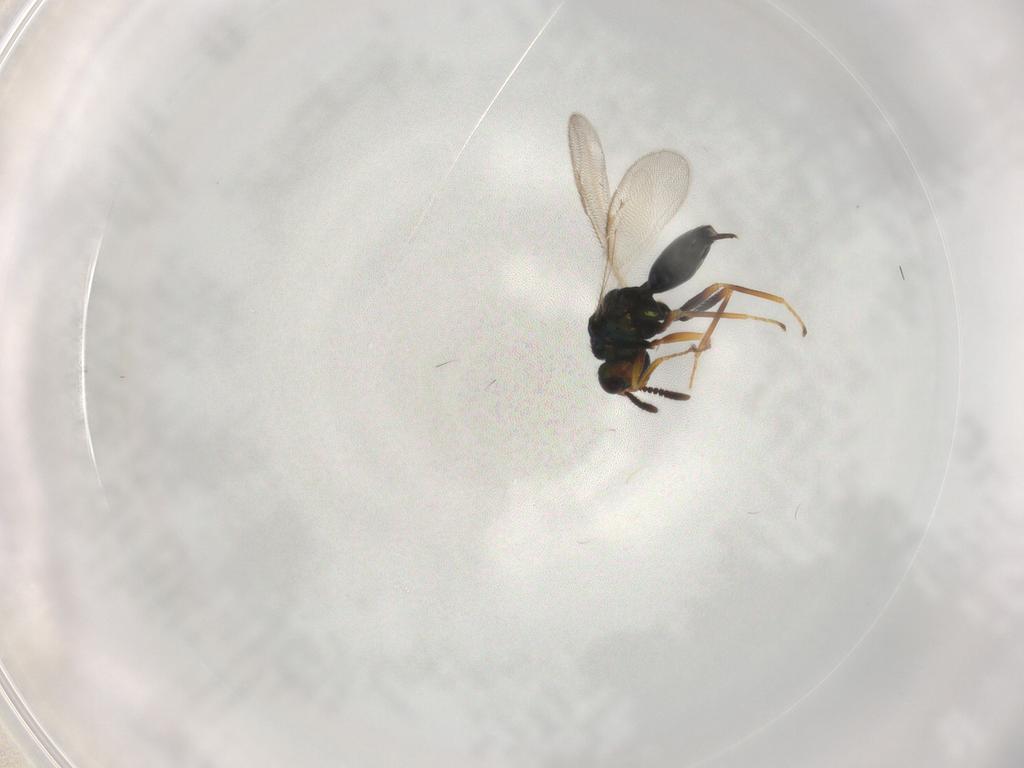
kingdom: Animalia
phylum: Arthropoda
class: Insecta
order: Hymenoptera
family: Chalcidoidea_incertae_sedis
